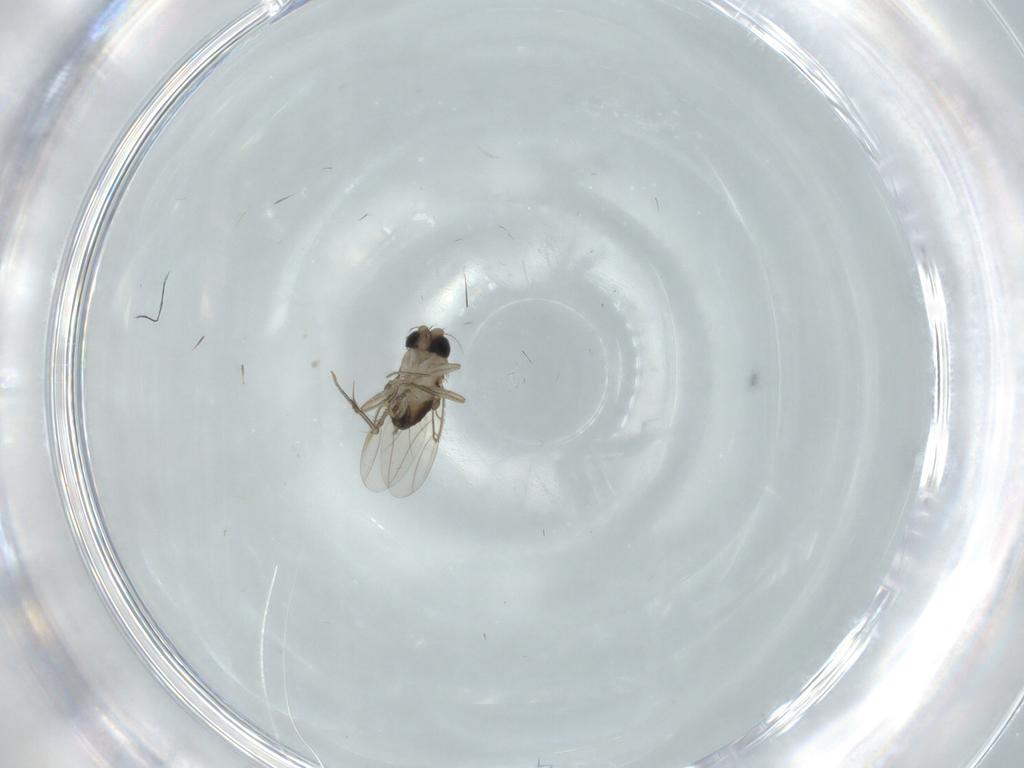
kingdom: Animalia
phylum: Arthropoda
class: Insecta
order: Diptera
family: Phoridae
